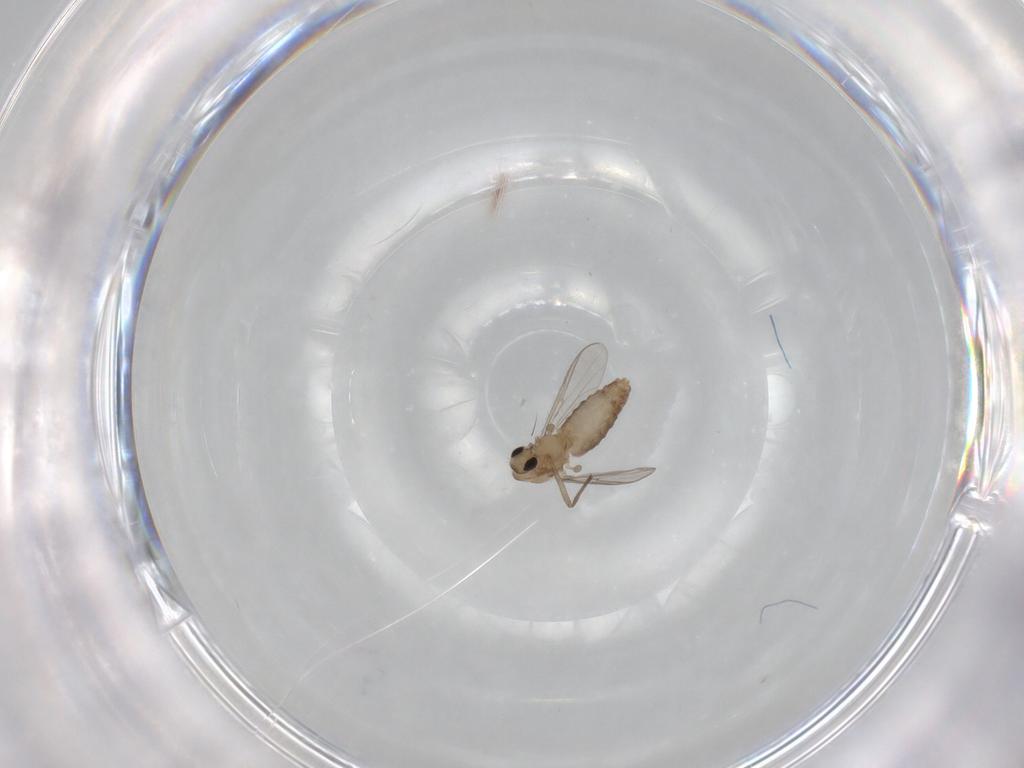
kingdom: Animalia
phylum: Arthropoda
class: Insecta
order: Diptera
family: Chironomidae
